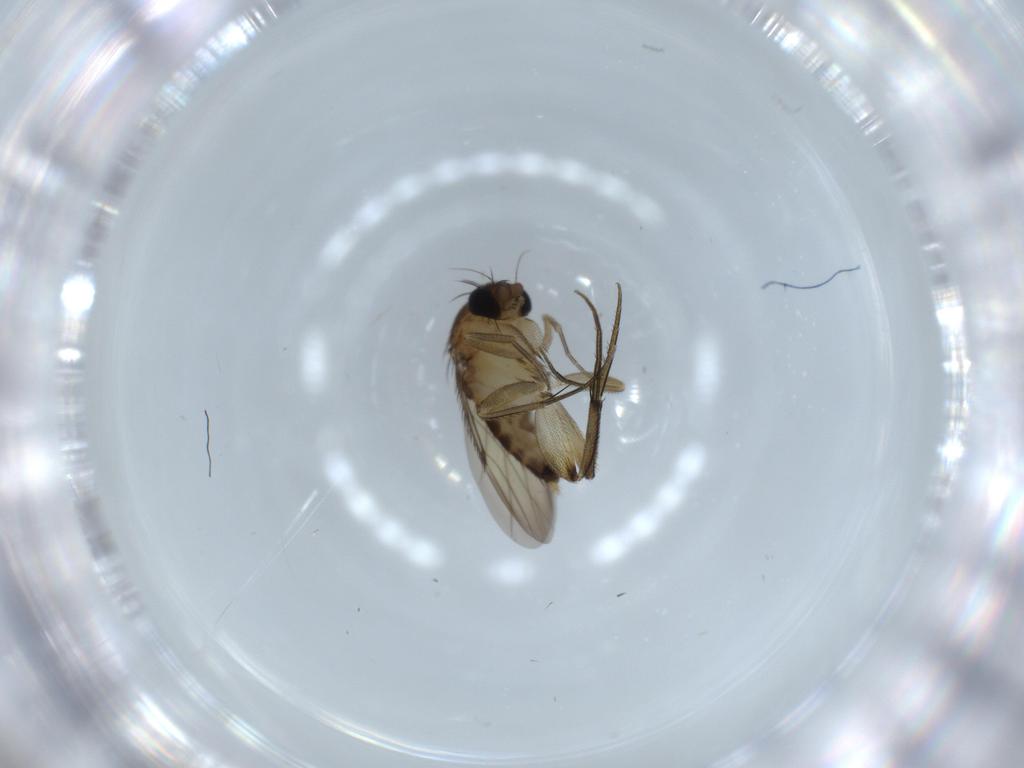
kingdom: Animalia
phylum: Arthropoda
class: Insecta
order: Diptera
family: Phoridae
